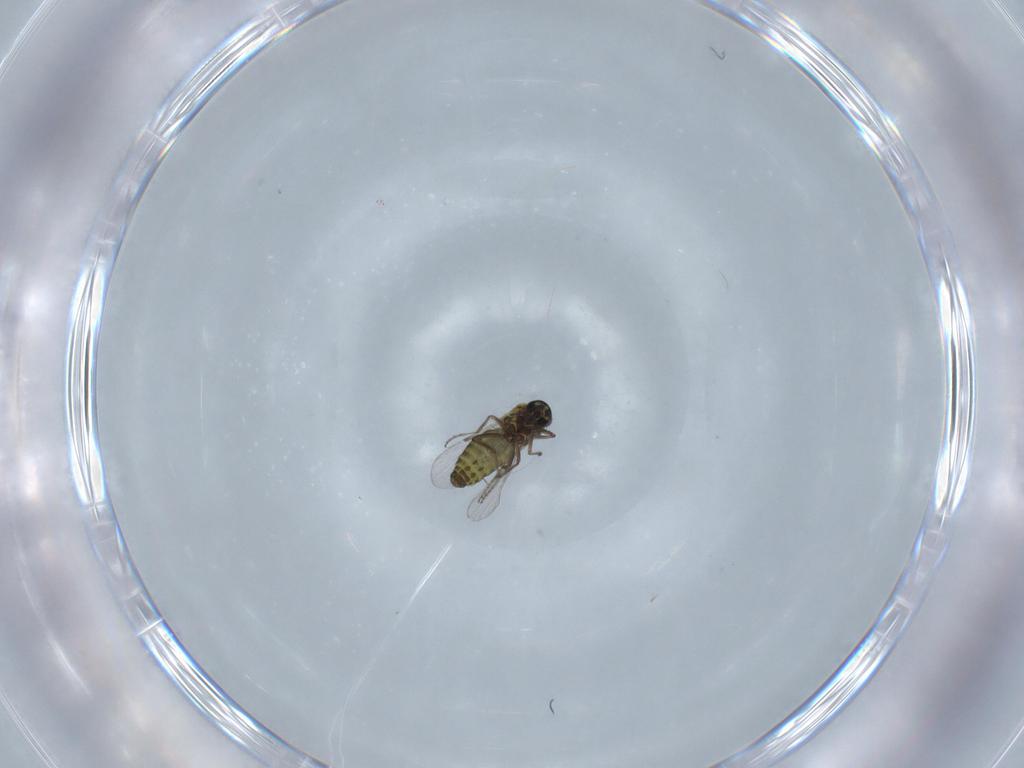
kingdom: Animalia
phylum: Arthropoda
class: Insecta
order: Diptera
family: Ceratopogonidae
